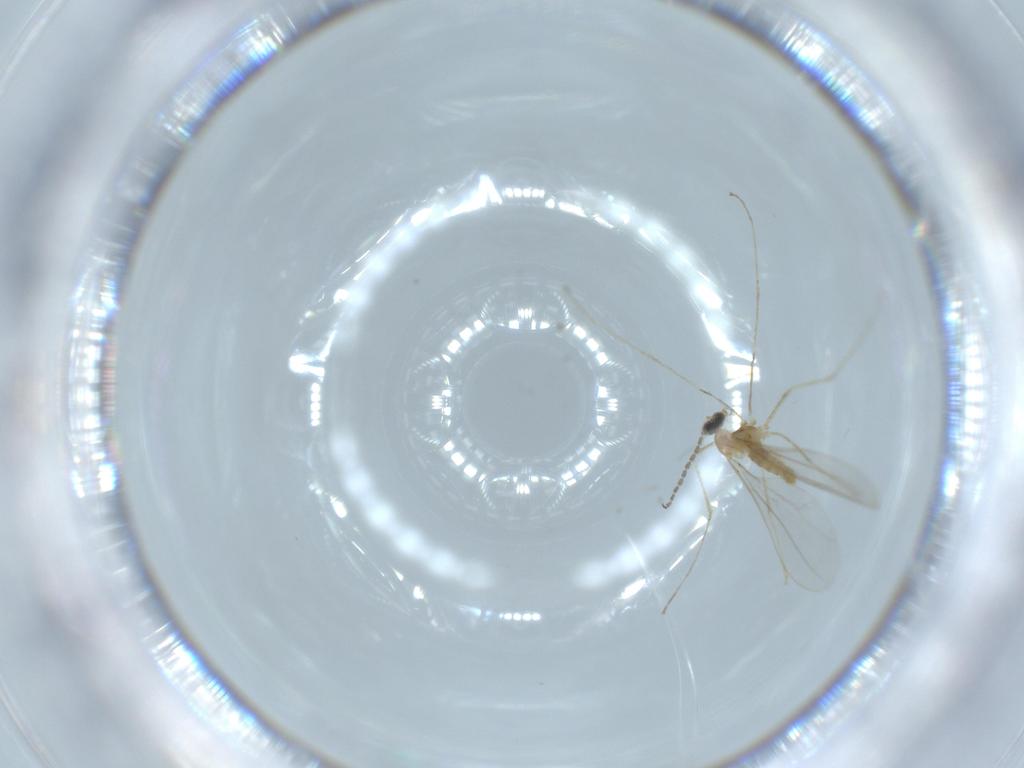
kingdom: Animalia
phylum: Arthropoda
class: Insecta
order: Diptera
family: Cecidomyiidae
